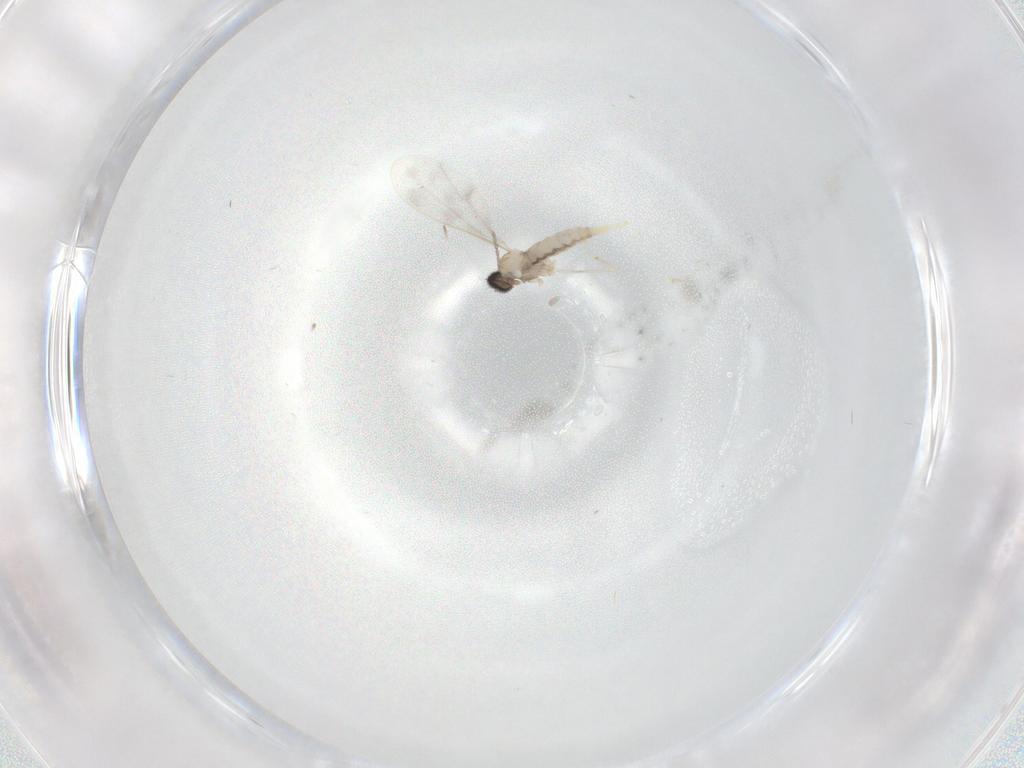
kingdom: Animalia
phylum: Arthropoda
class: Insecta
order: Diptera
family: Cecidomyiidae
